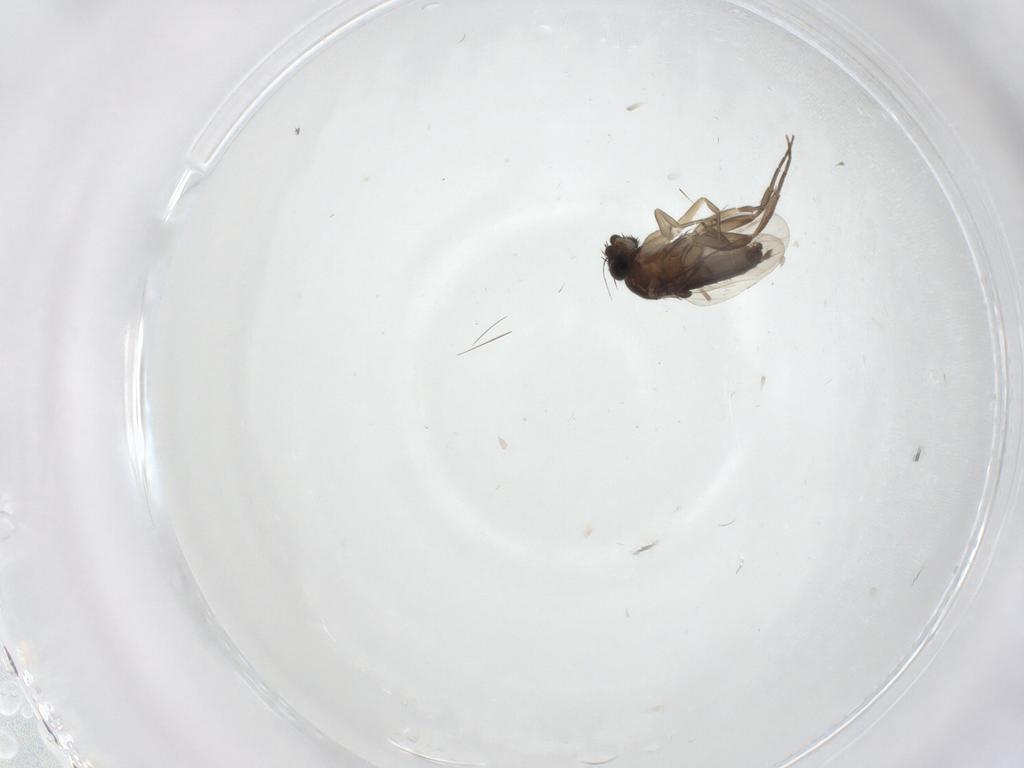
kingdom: Animalia
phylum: Arthropoda
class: Insecta
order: Diptera
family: Phoridae
